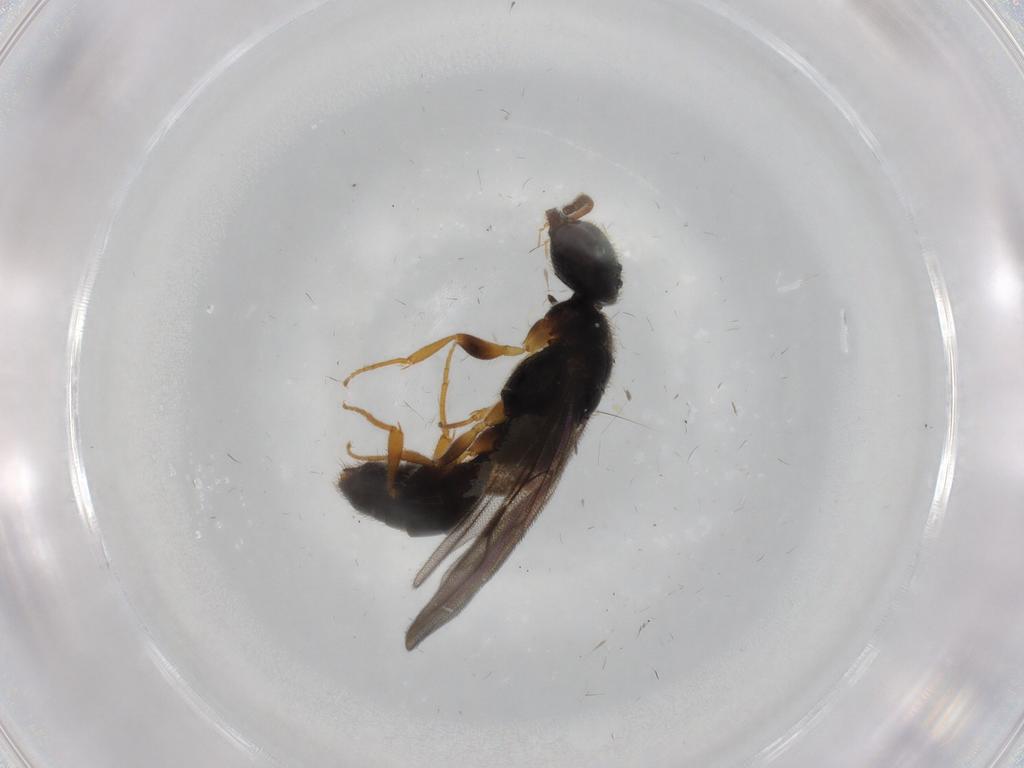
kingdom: Animalia
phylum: Arthropoda
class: Insecta
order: Hymenoptera
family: Bethylidae
